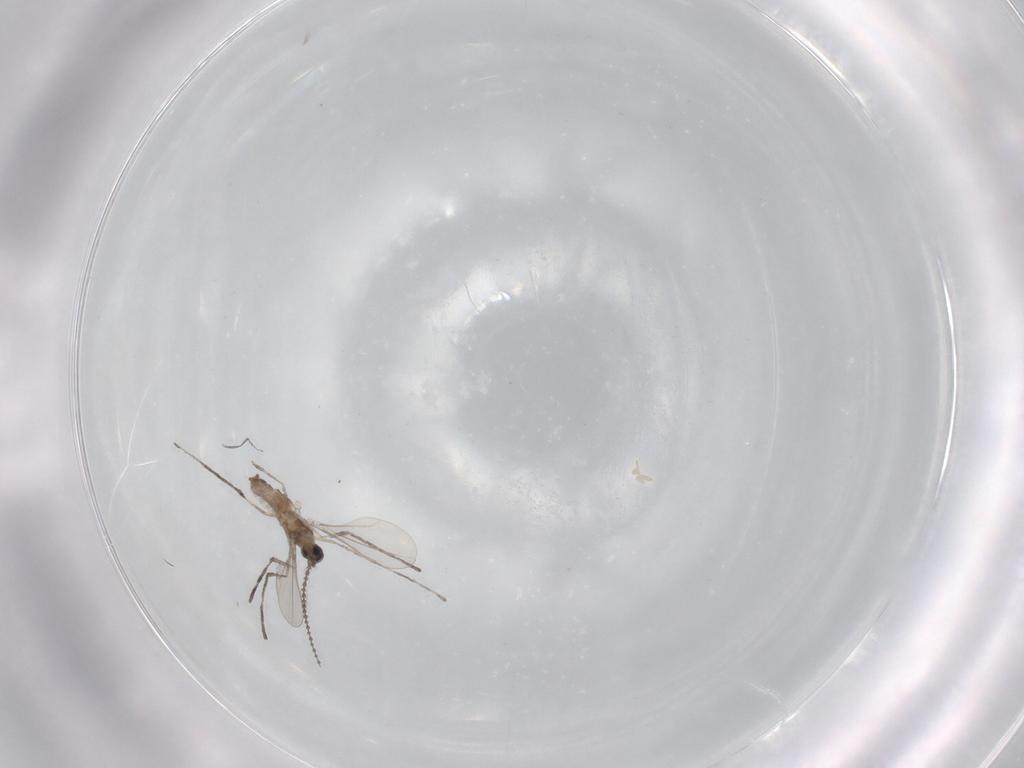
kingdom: Animalia
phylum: Arthropoda
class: Insecta
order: Diptera
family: Cecidomyiidae
